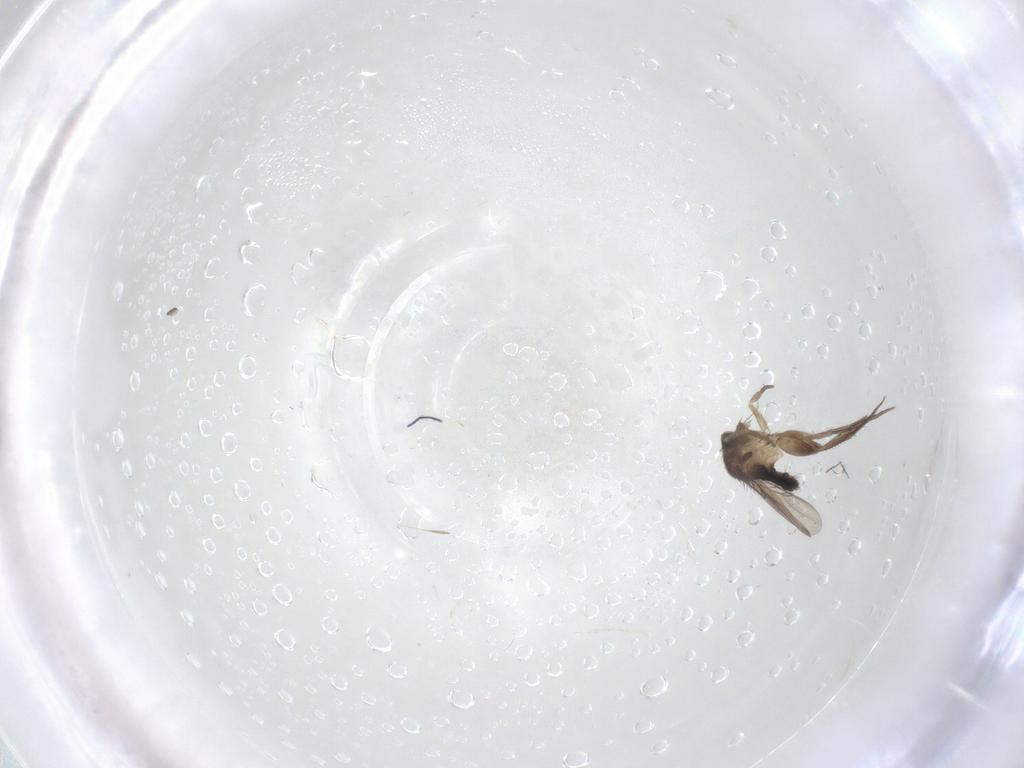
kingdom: Animalia
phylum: Arthropoda
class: Insecta
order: Diptera
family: Phoridae
